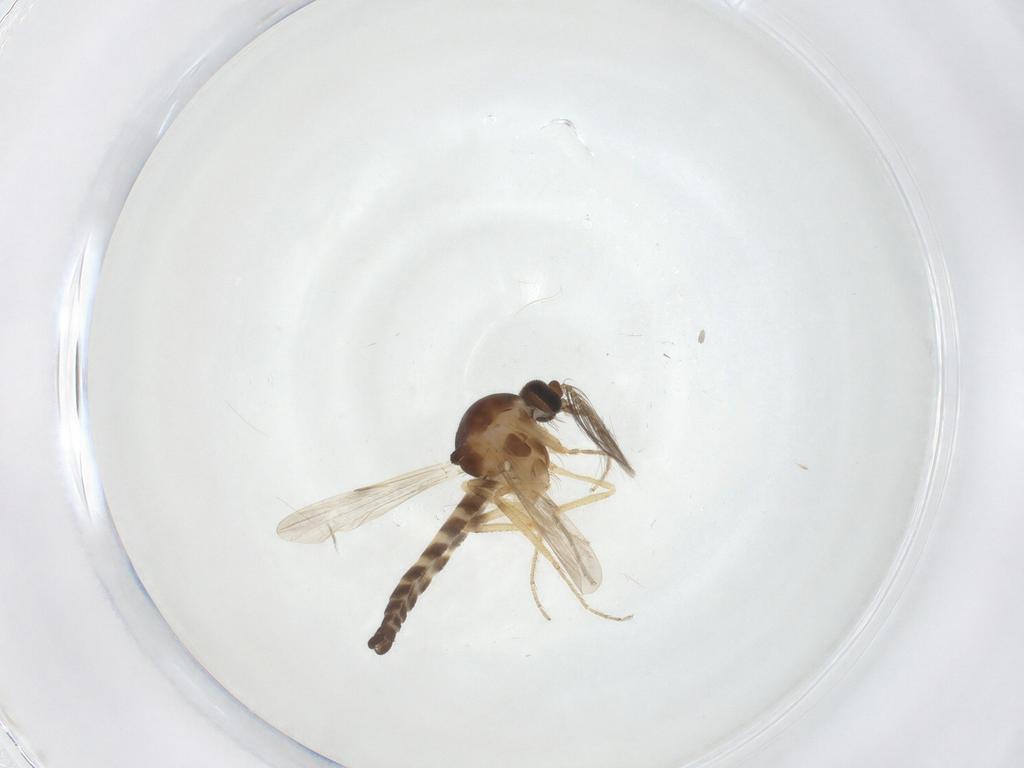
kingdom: Animalia
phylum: Arthropoda
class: Insecta
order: Diptera
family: Ceratopogonidae
